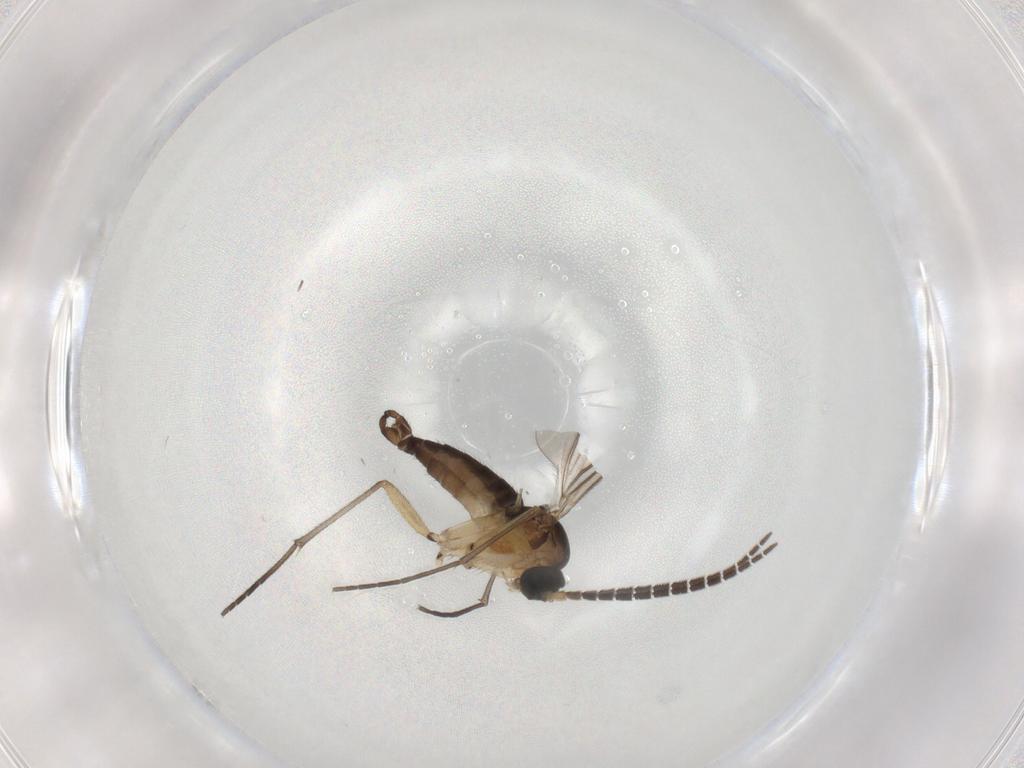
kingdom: Animalia
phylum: Arthropoda
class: Insecta
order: Diptera
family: Sciaridae
